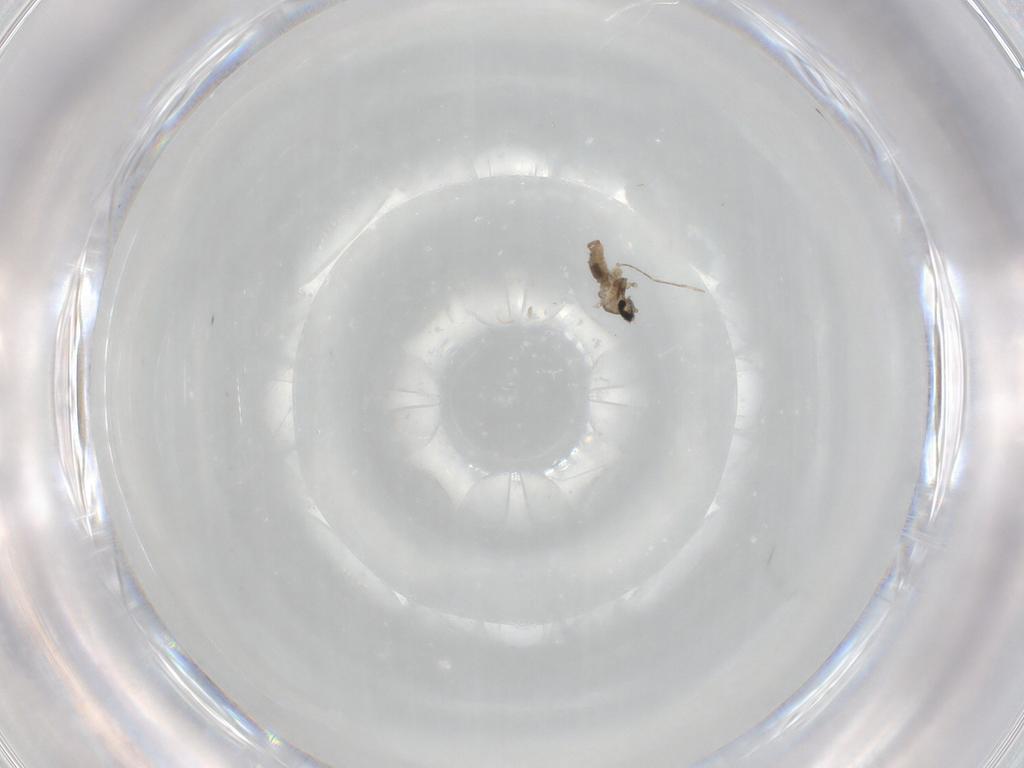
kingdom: Animalia
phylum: Arthropoda
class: Insecta
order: Diptera
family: Cecidomyiidae
